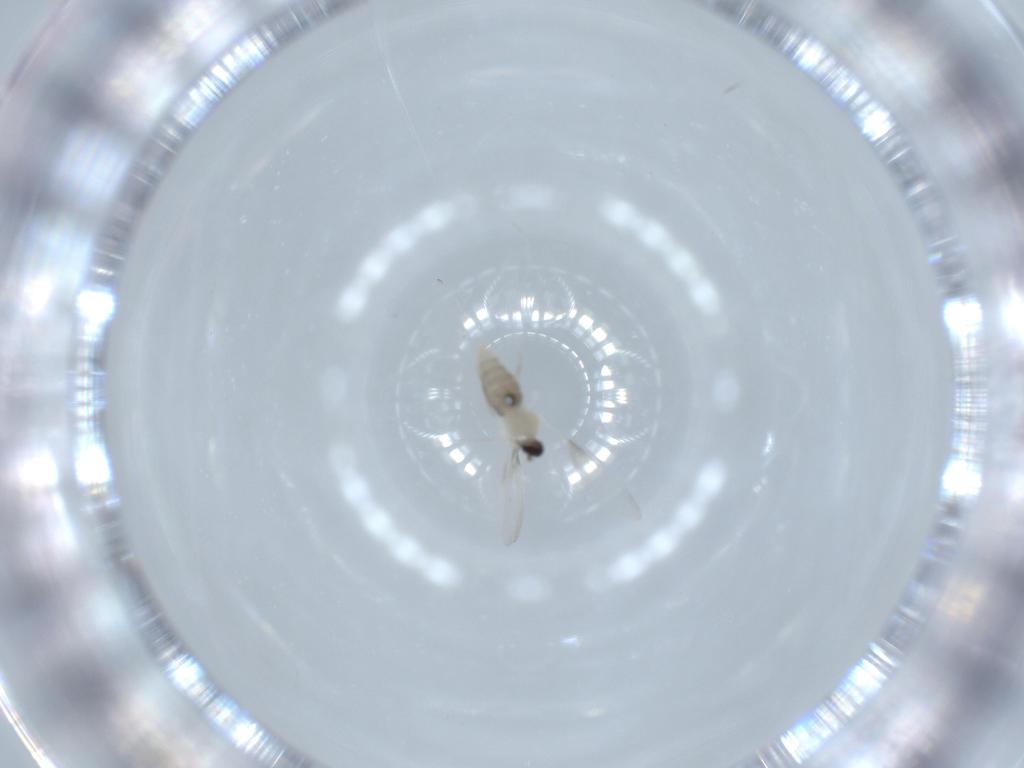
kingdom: Animalia
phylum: Arthropoda
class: Insecta
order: Diptera
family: Cecidomyiidae
